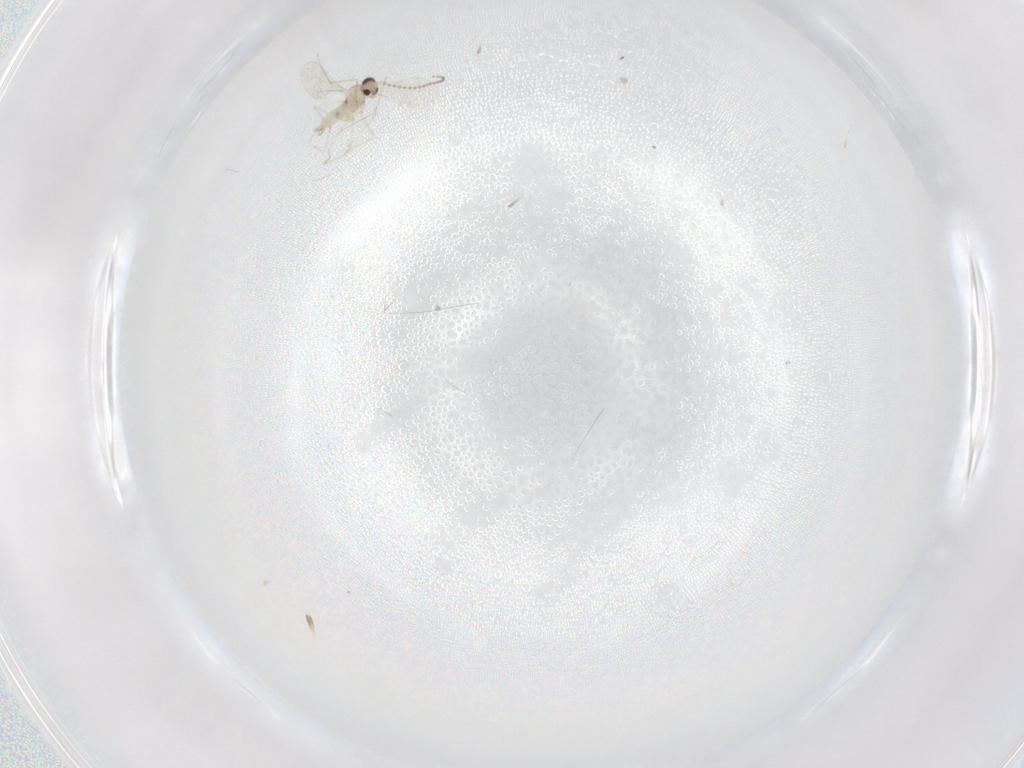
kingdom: Animalia
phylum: Arthropoda
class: Insecta
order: Diptera
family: Cecidomyiidae
